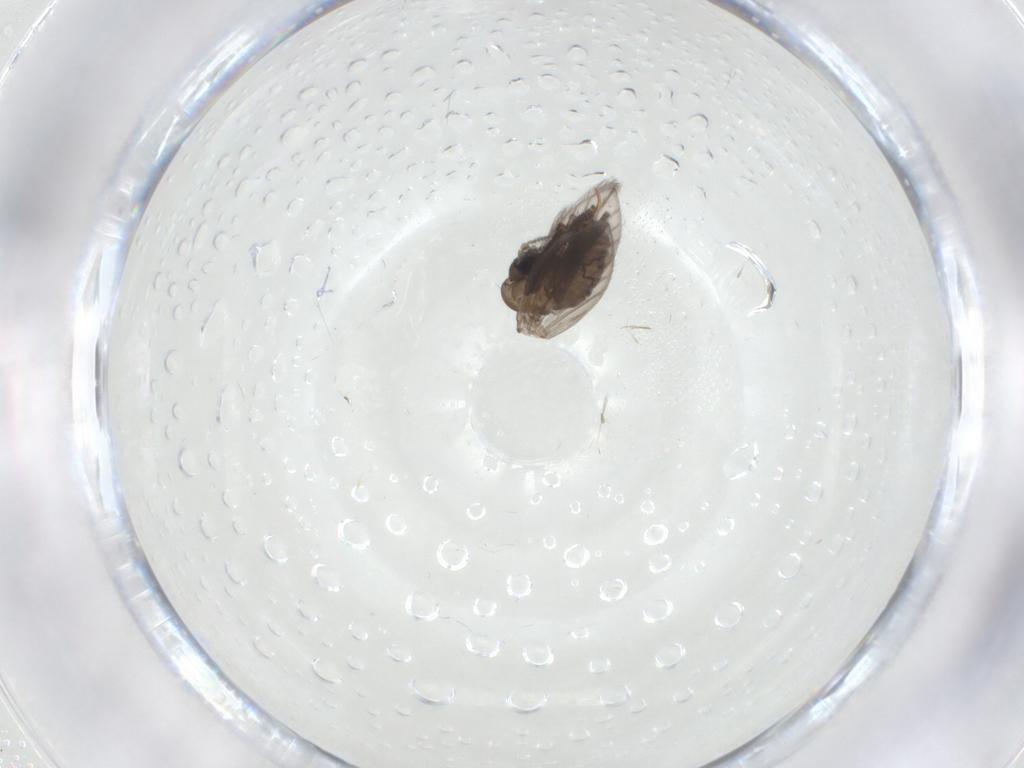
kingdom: Animalia
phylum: Arthropoda
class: Insecta
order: Diptera
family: Psychodidae
